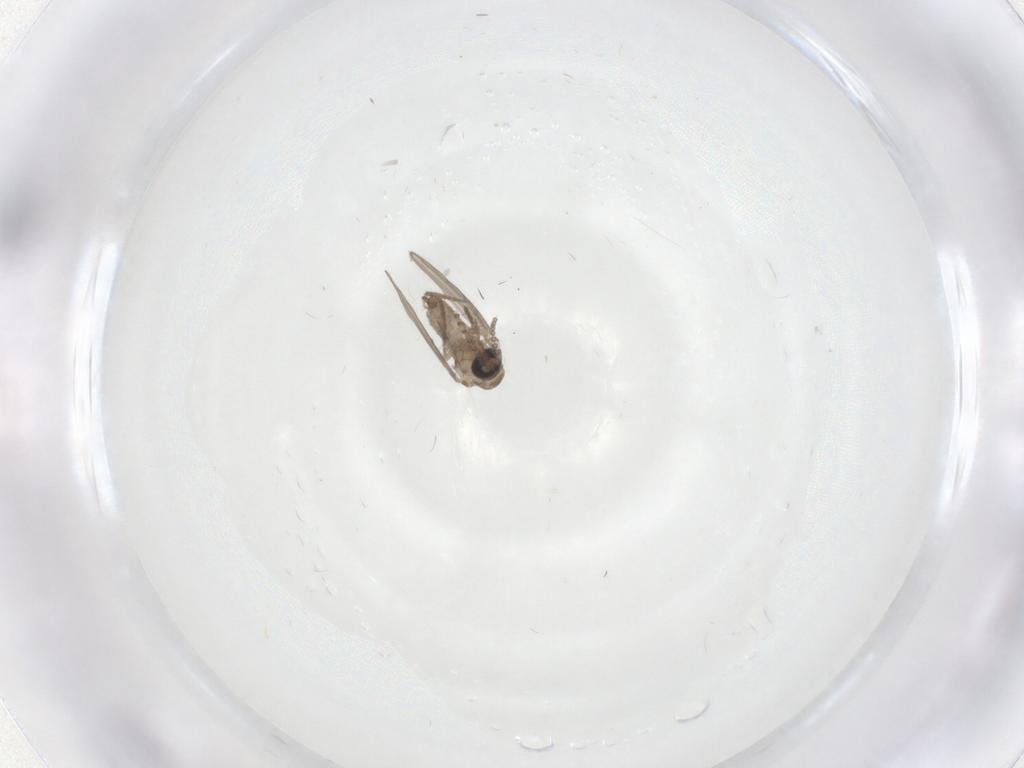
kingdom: Animalia
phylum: Arthropoda
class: Insecta
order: Diptera
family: Psychodidae
